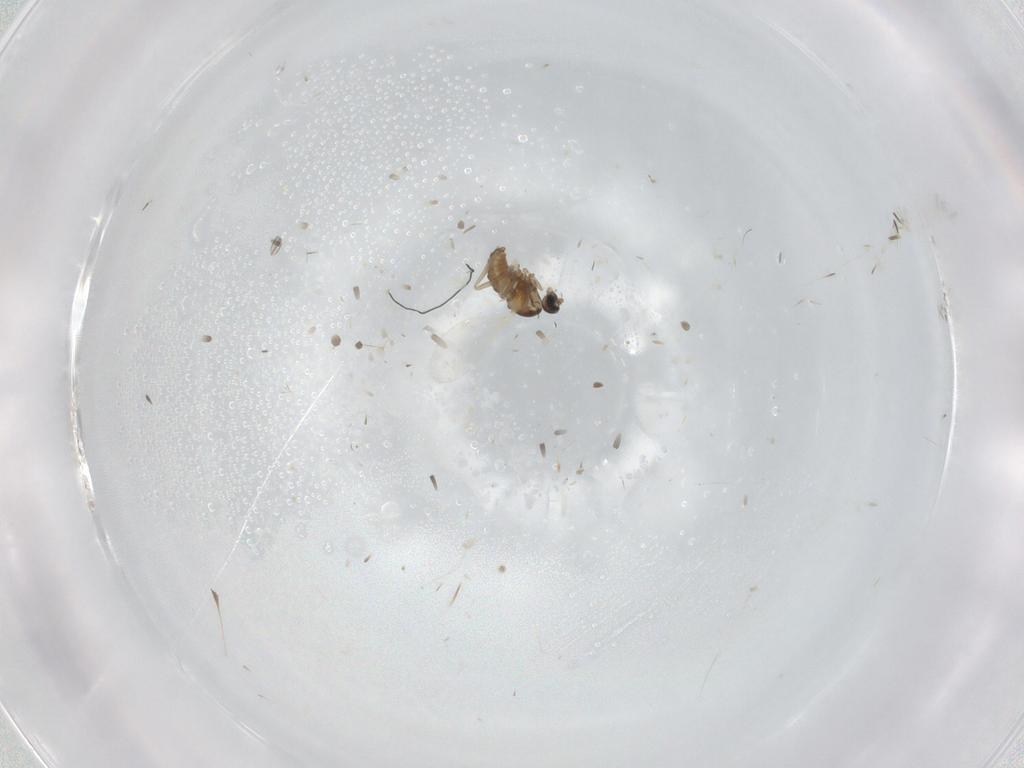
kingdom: Animalia
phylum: Arthropoda
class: Insecta
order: Diptera
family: Cecidomyiidae
